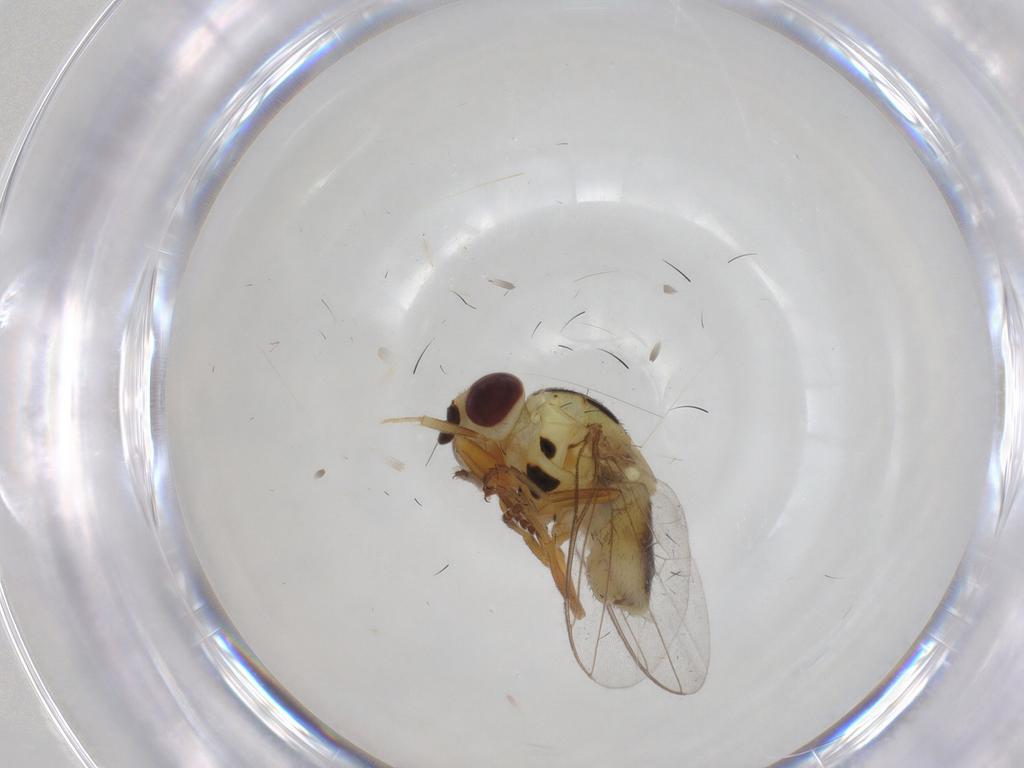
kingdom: Animalia
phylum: Arthropoda
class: Insecta
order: Diptera
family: Chloropidae
